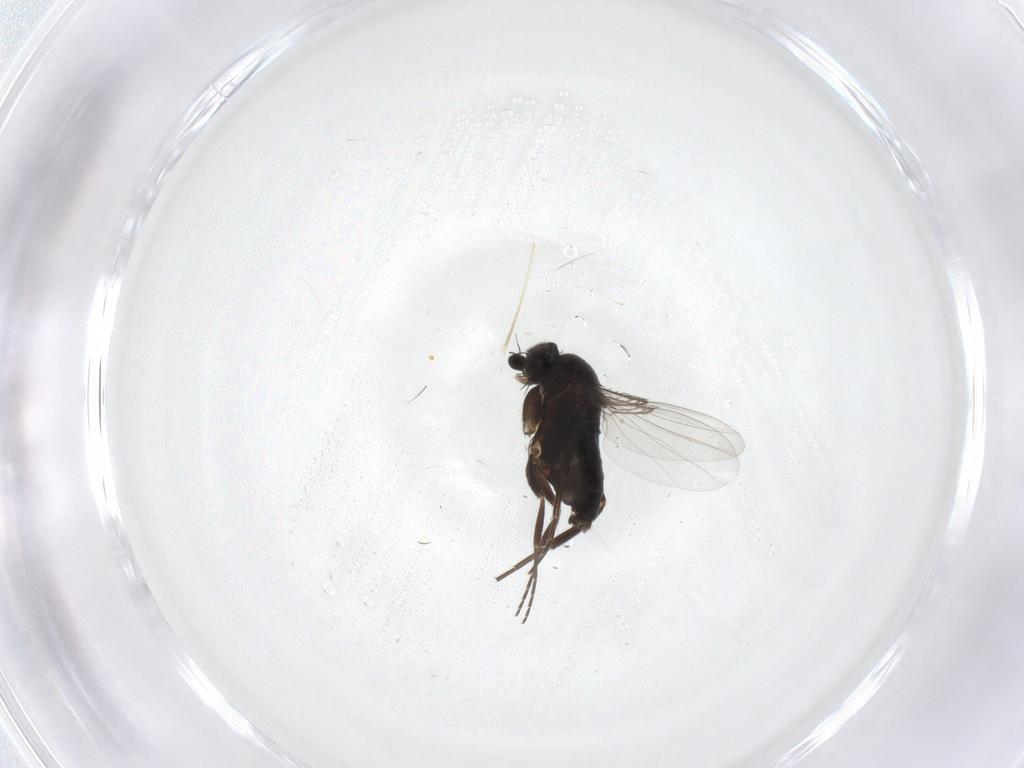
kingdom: Animalia
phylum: Arthropoda
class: Insecta
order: Diptera
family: Phoridae
